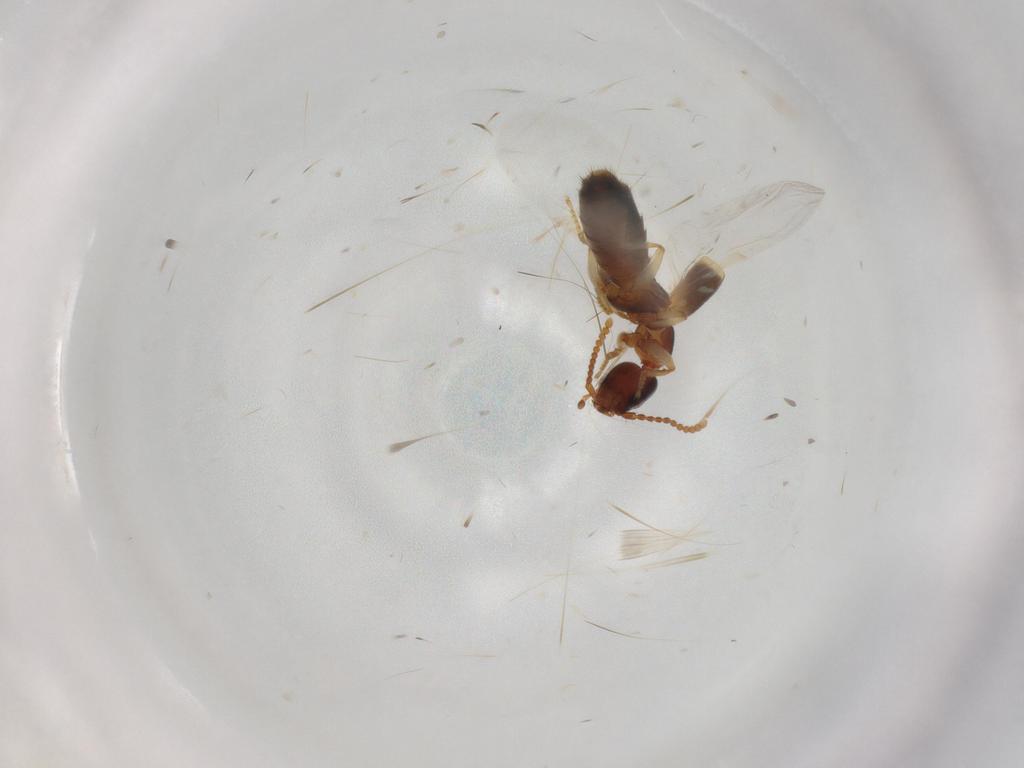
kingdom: Animalia
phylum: Arthropoda
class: Insecta
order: Coleoptera
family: Staphylinidae
